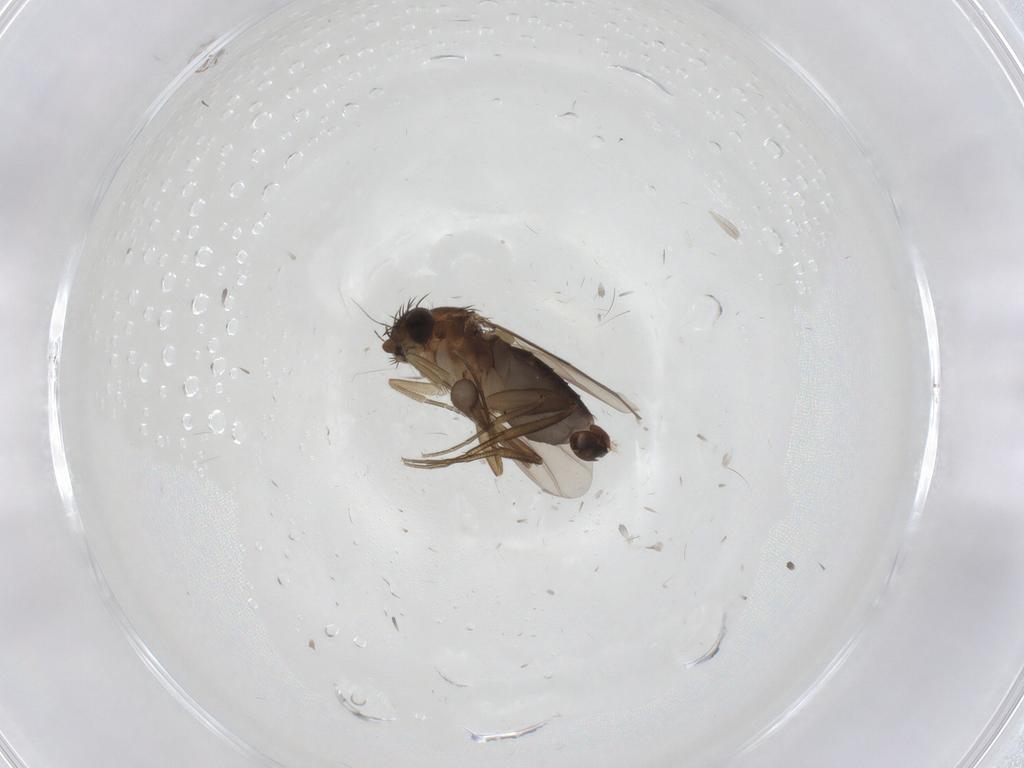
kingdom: Animalia
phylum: Arthropoda
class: Insecta
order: Diptera
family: Phoridae
